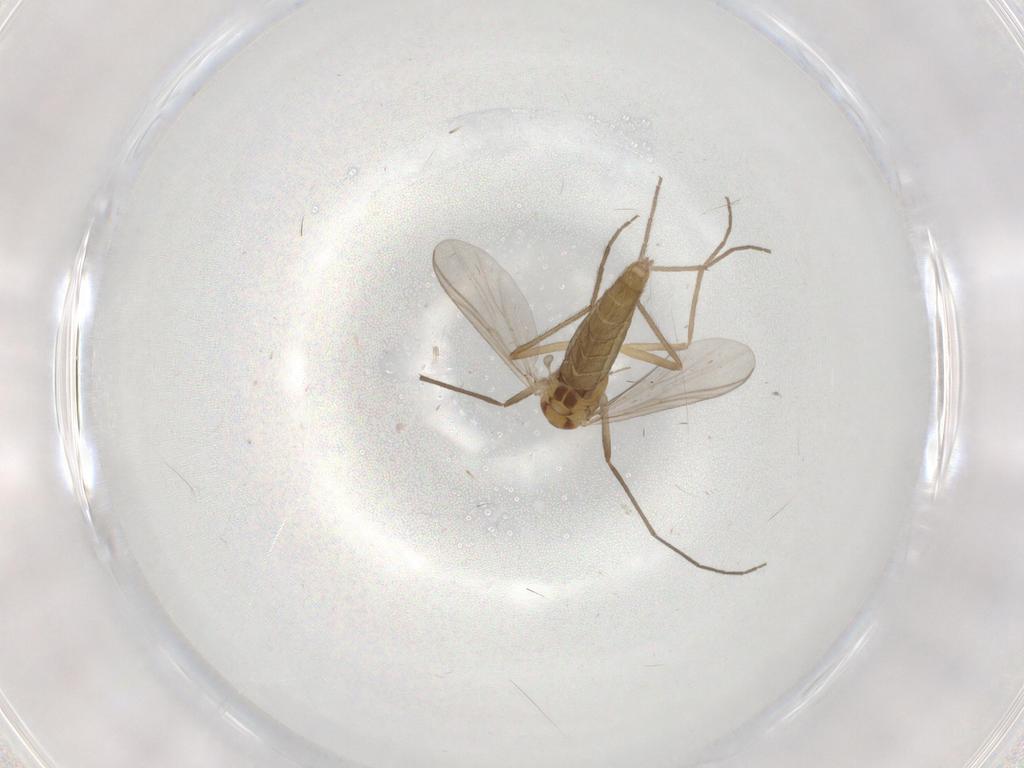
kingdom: Animalia
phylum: Arthropoda
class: Insecta
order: Diptera
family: Chironomidae
